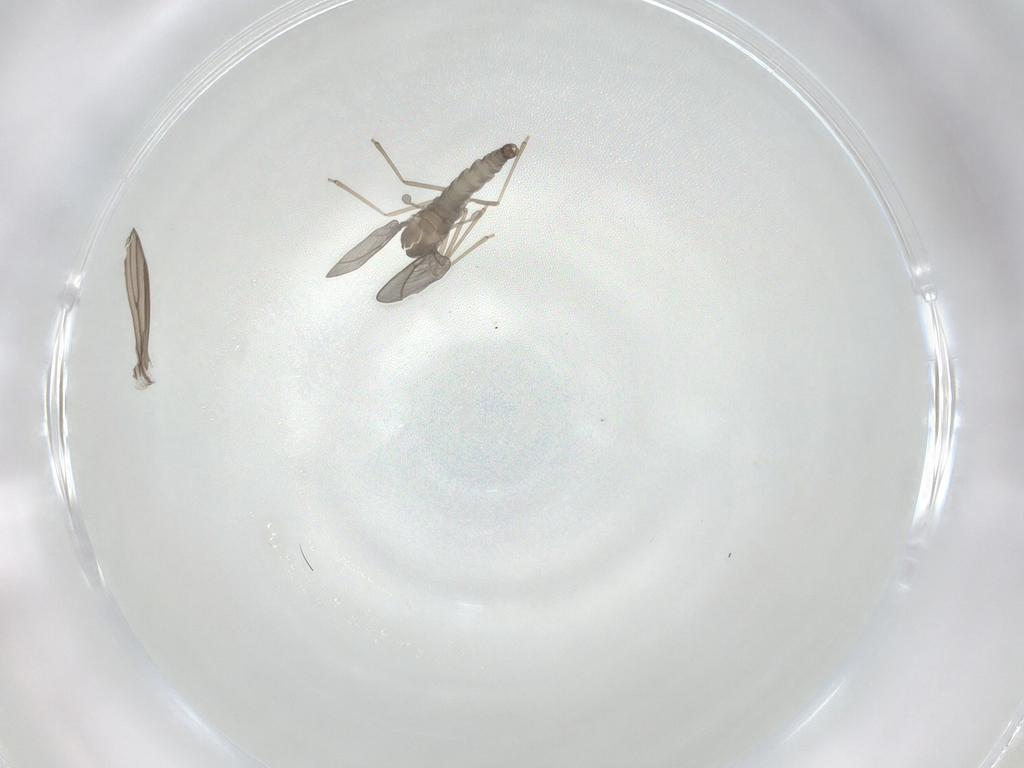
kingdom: Animalia
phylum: Arthropoda
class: Insecta
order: Diptera
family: Psychodidae
